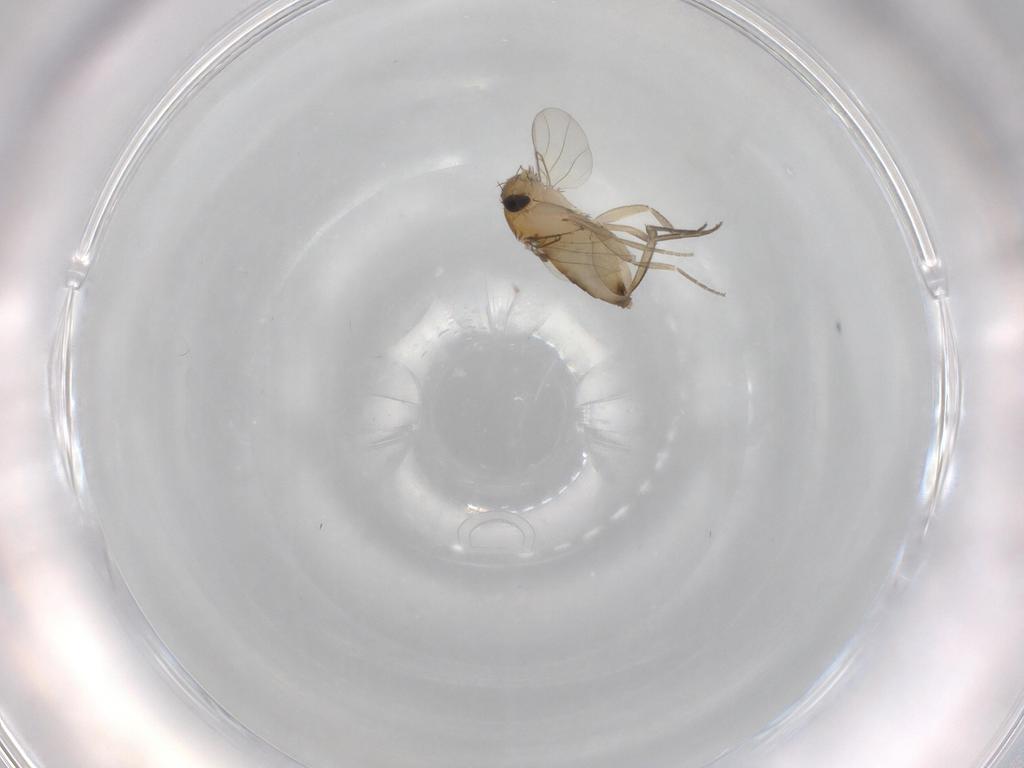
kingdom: Animalia
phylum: Arthropoda
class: Insecta
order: Diptera
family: Phoridae
